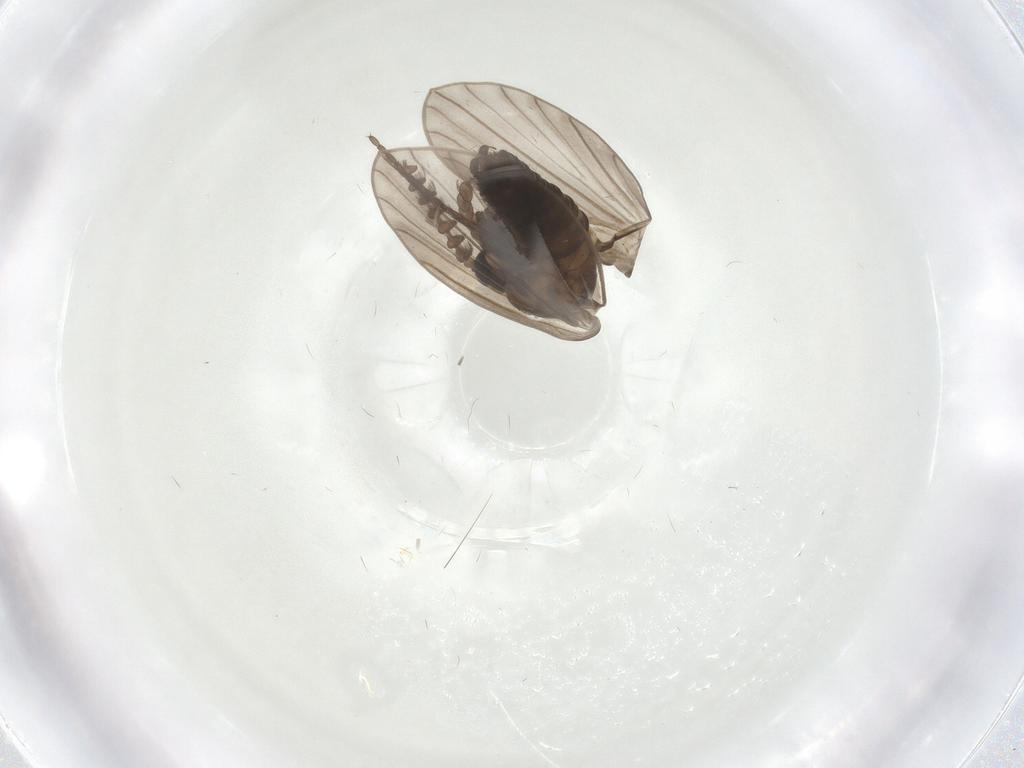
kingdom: Animalia
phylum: Arthropoda
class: Insecta
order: Diptera
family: Psychodidae
